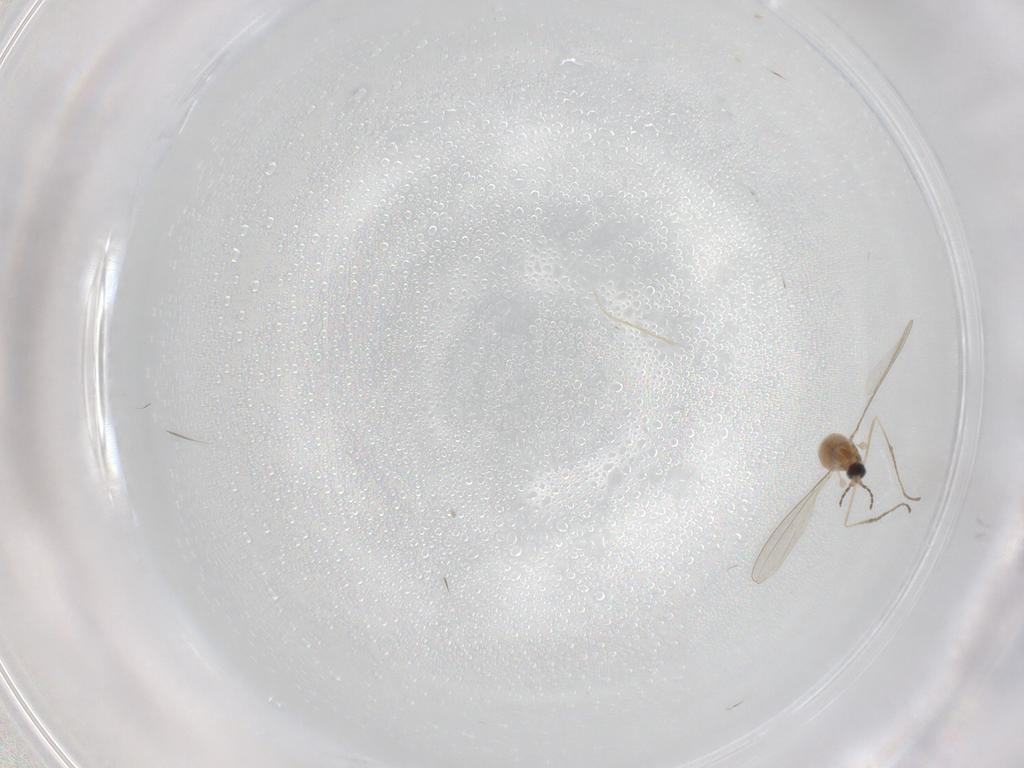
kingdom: Animalia
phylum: Arthropoda
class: Insecta
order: Diptera
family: Cecidomyiidae
